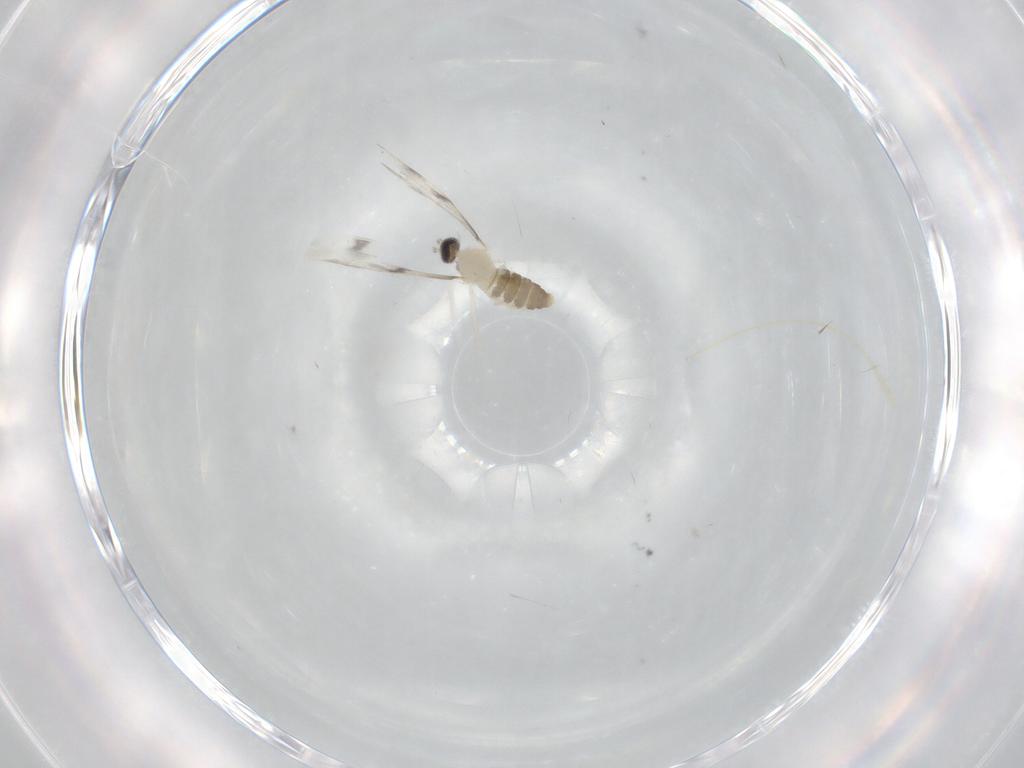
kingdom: Animalia
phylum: Arthropoda
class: Insecta
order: Diptera
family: Cecidomyiidae
